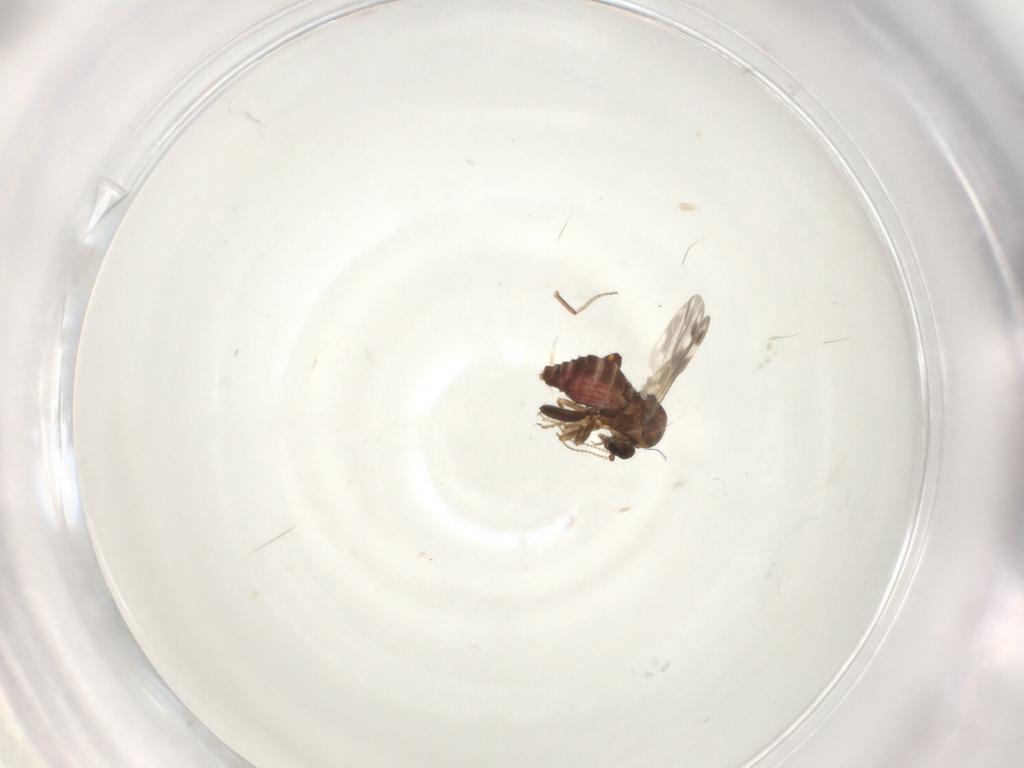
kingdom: Animalia
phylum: Arthropoda
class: Insecta
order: Diptera
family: Ceratopogonidae
